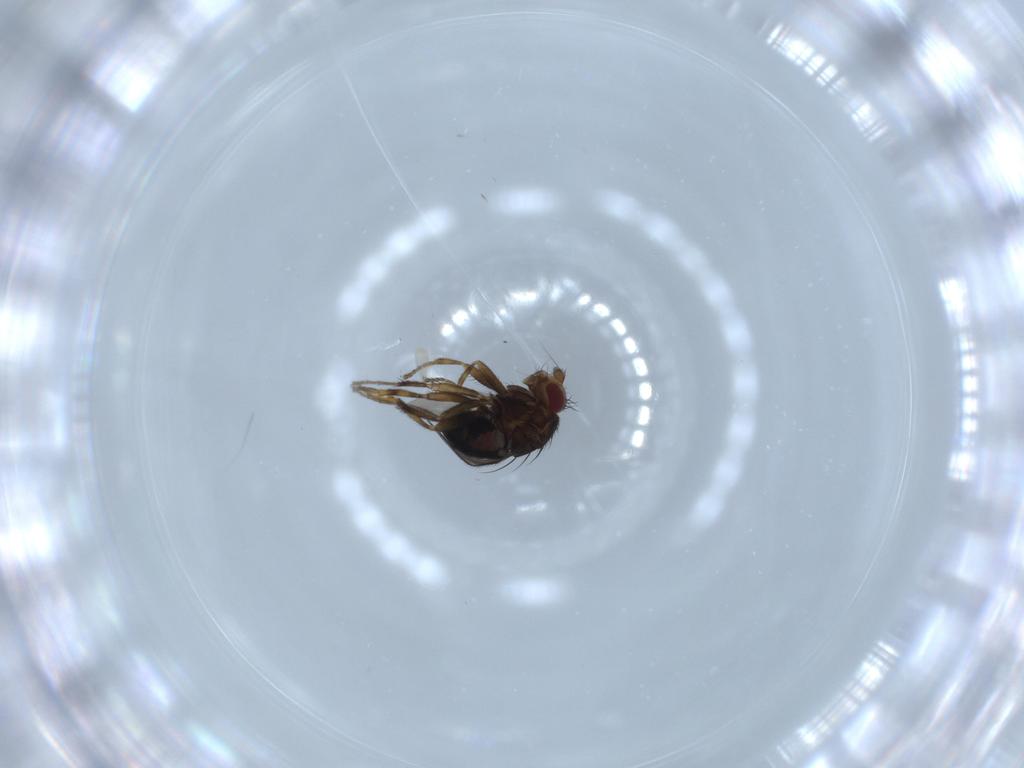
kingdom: Animalia
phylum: Arthropoda
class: Insecta
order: Diptera
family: Sphaeroceridae
